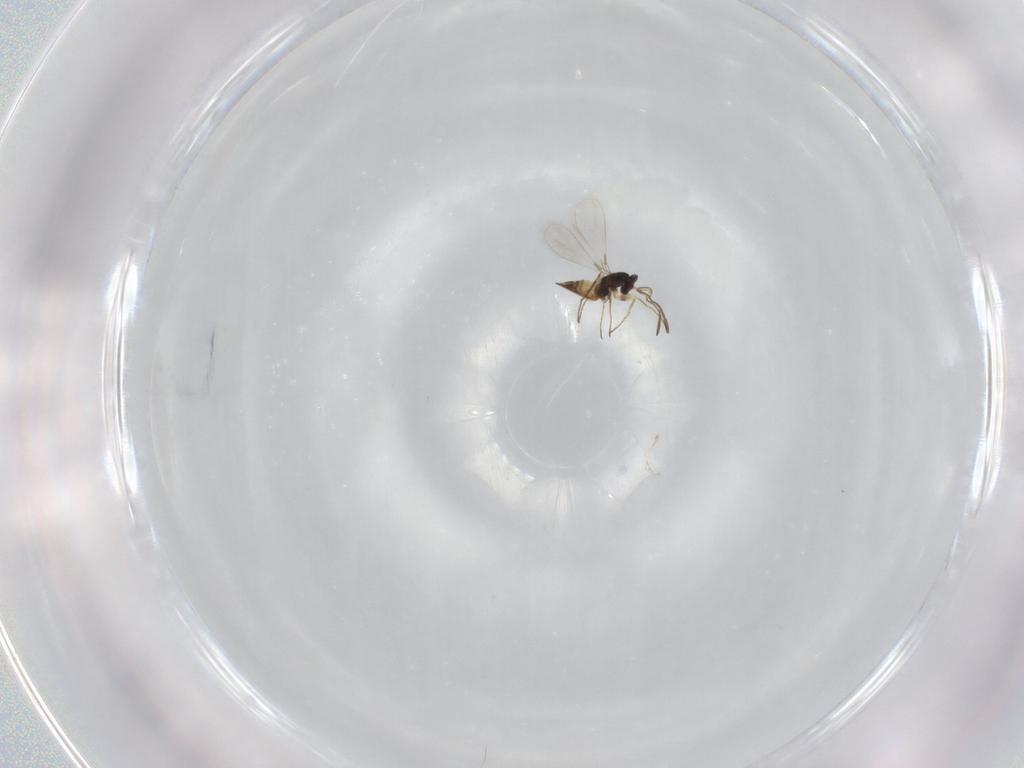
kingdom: Animalia
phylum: Arthropoda
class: Insecta
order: Hymenoptera
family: Mymaridae
